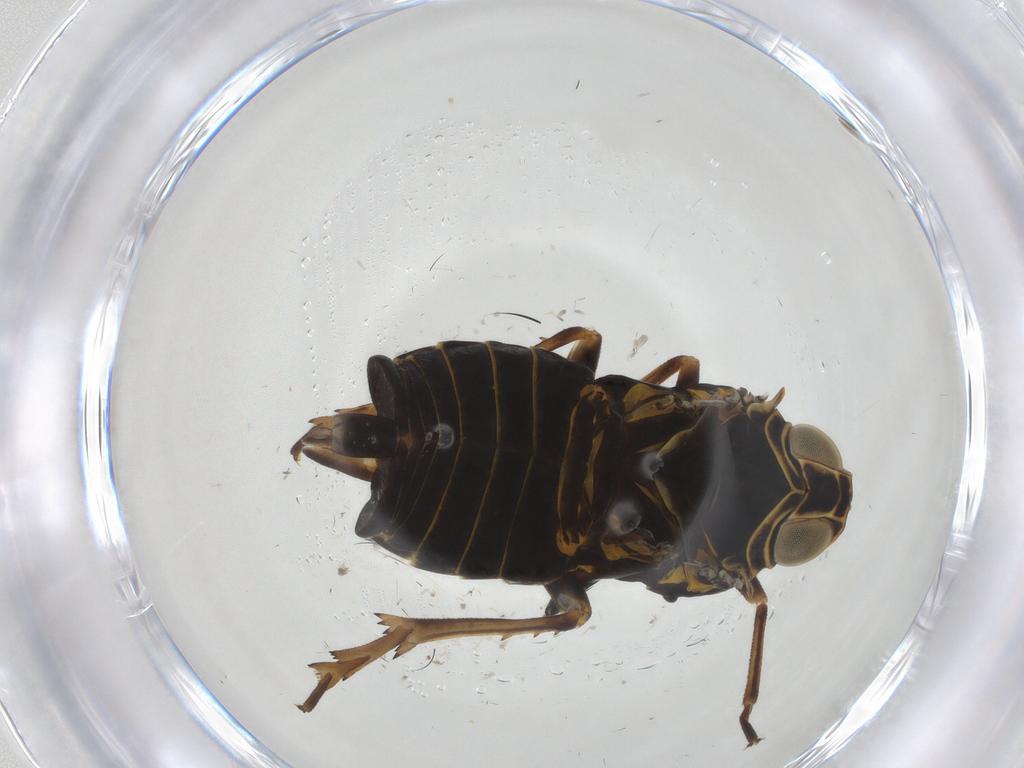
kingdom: Animalia
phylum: Arthropoda
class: Insecta
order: Hemiptera
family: Cixiidae
